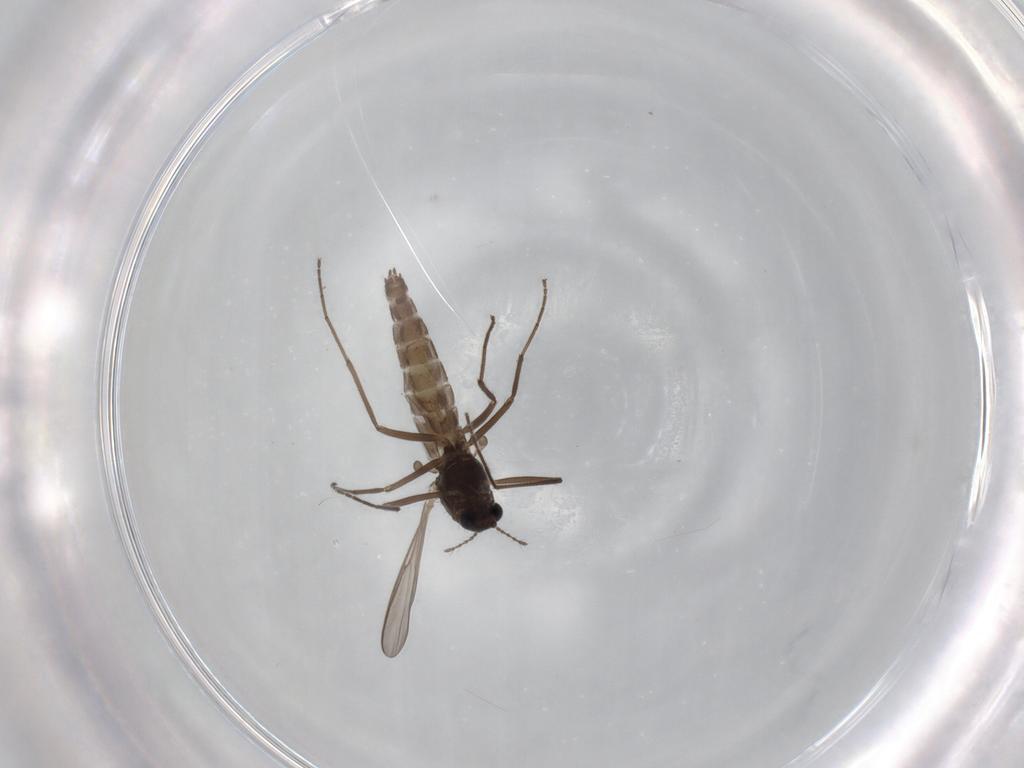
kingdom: Animalia
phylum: Arthropoda
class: Insecta
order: Diptera
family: Chironomidae
